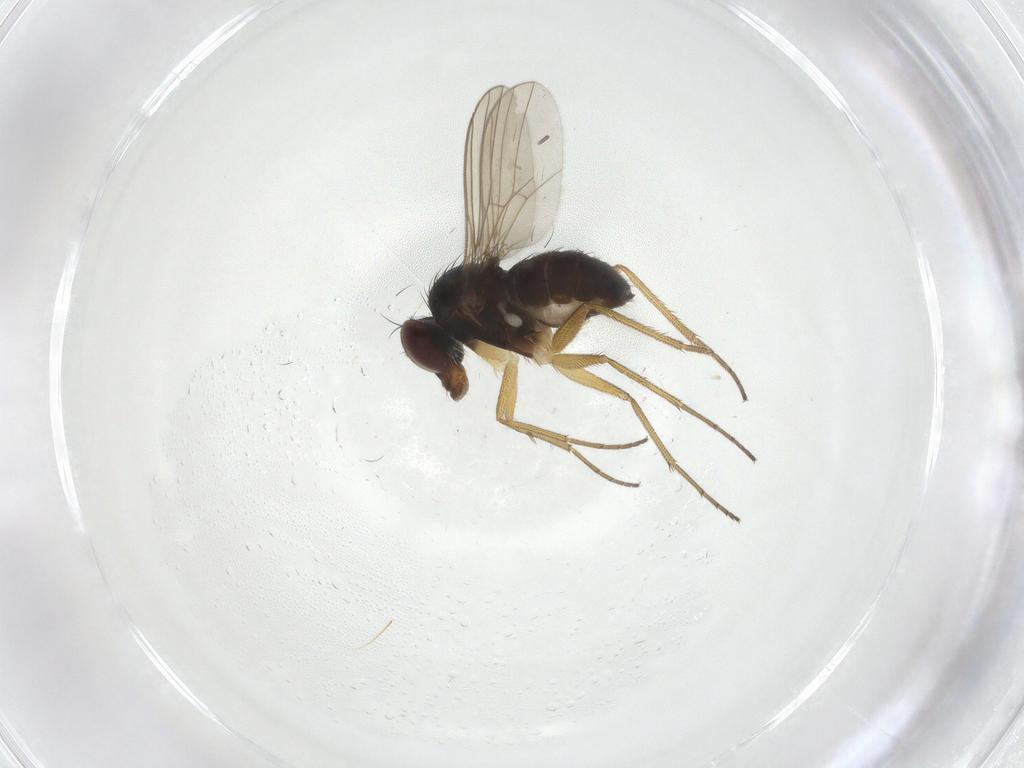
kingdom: Animalia
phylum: Arthropoda
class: Insecta
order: Diptera
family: Dolichopodidae
